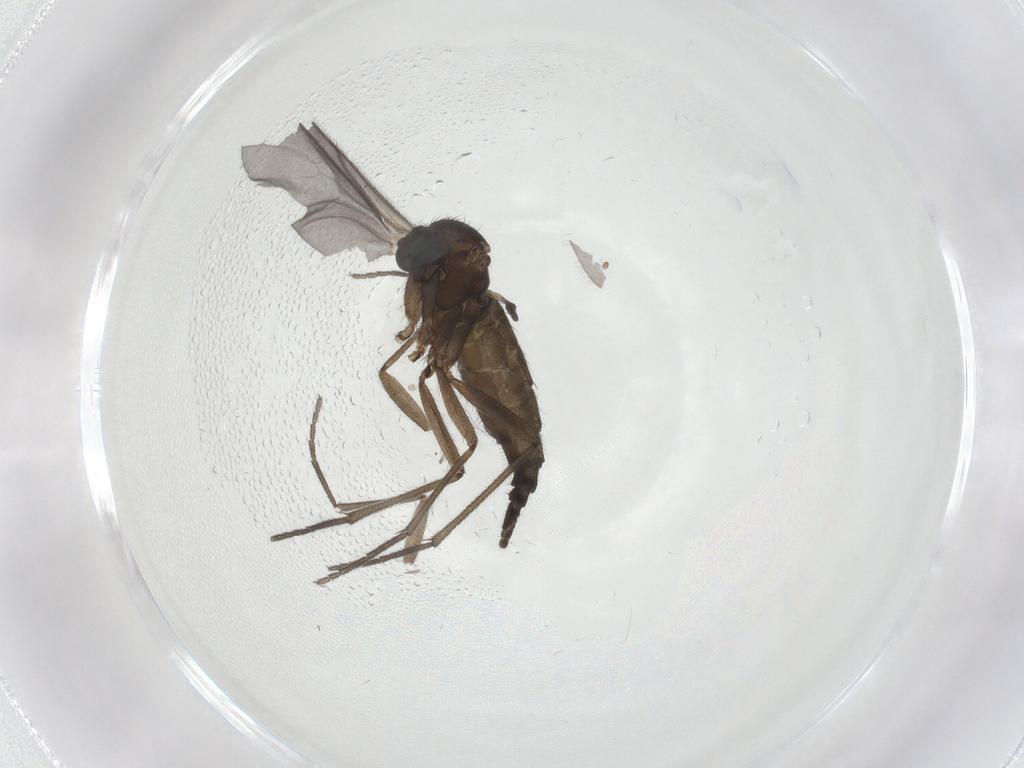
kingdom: Animalia
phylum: Arthropoda
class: Insecta
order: Diptera
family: Sciaridae
